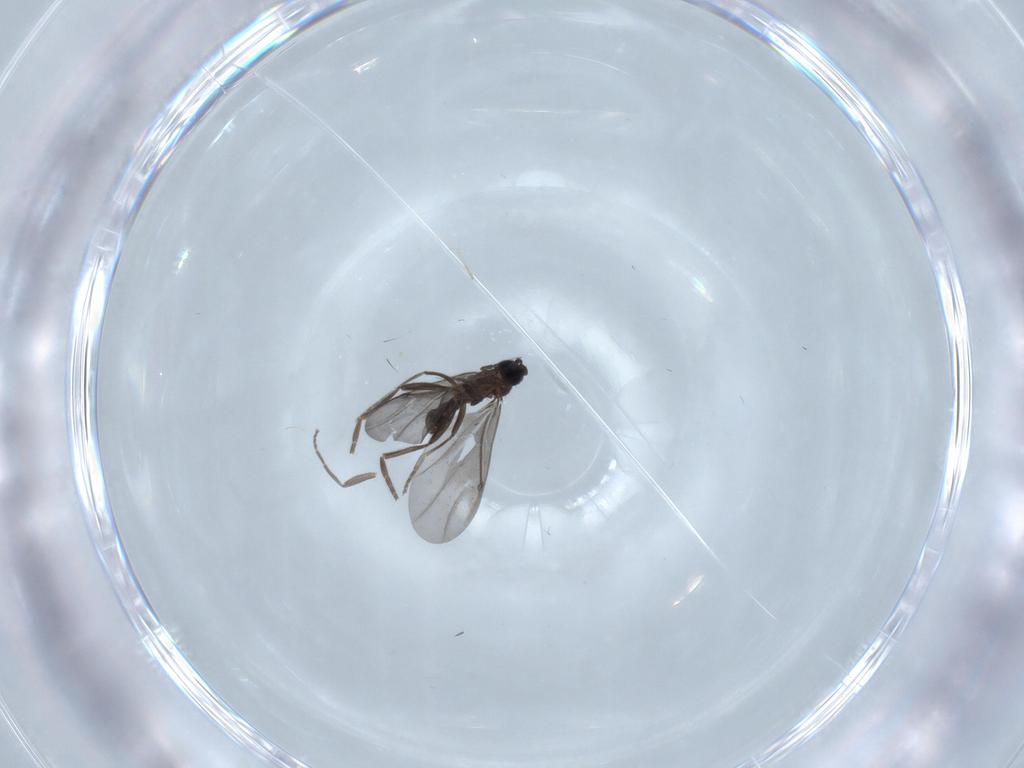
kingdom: Animalia
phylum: Arthropoda
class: Insecta
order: Diptera
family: Phoridae
